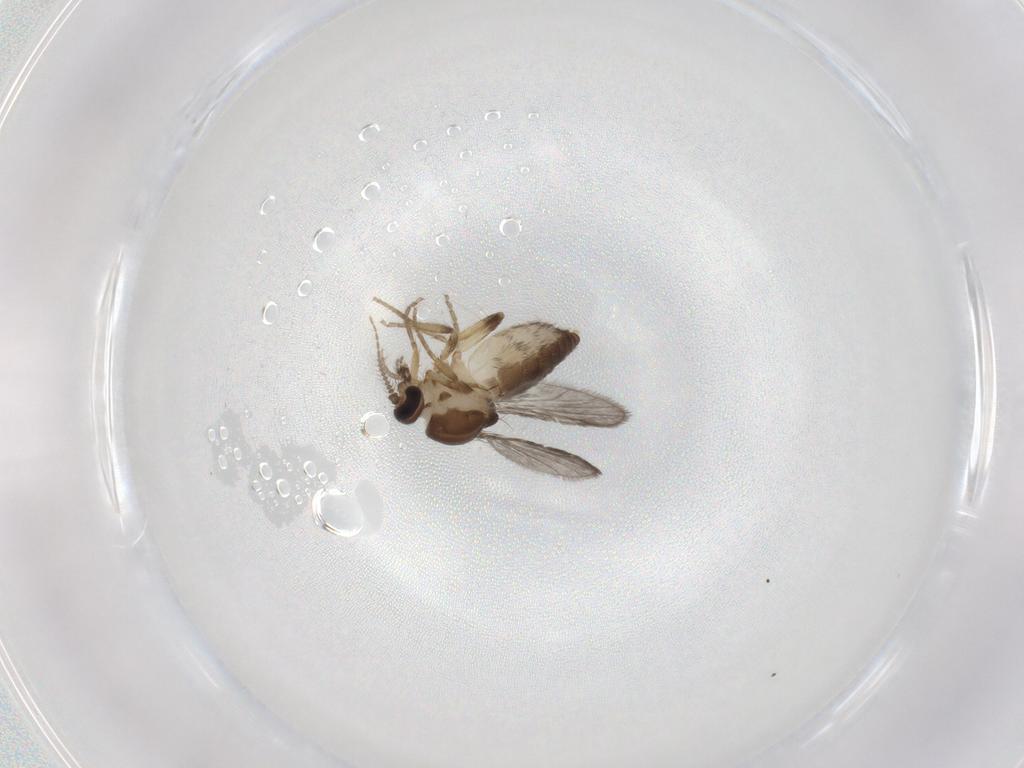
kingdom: Animalia
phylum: Arthropoda
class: Insecta
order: Diptera
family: Ceratopogonidae
